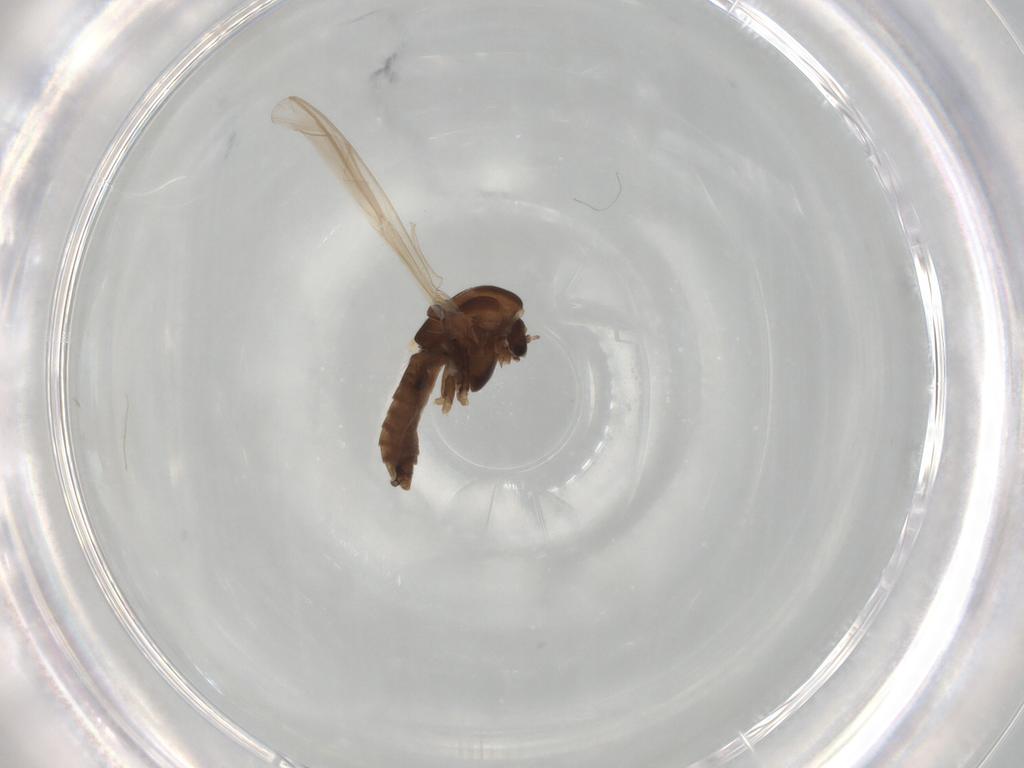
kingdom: Animalia
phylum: Arthropoda
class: Insecta
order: Diptera
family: Chironomidae
